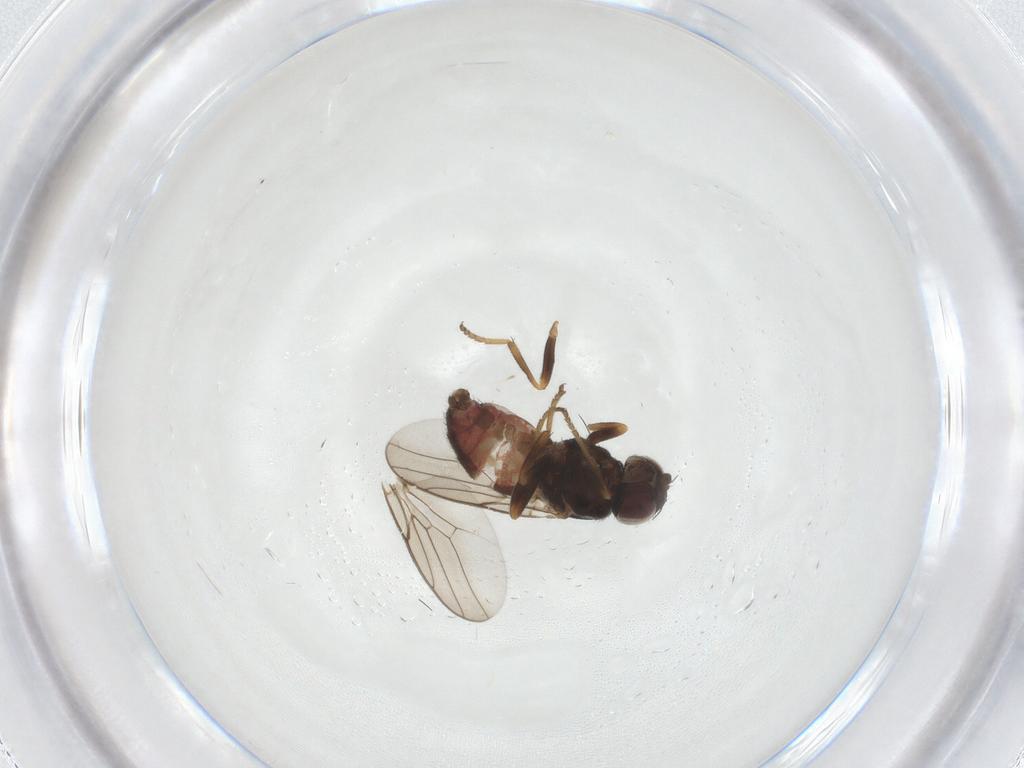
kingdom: Animalia
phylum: Arthropoda
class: Insecta
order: Diptera
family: Chloropidae
